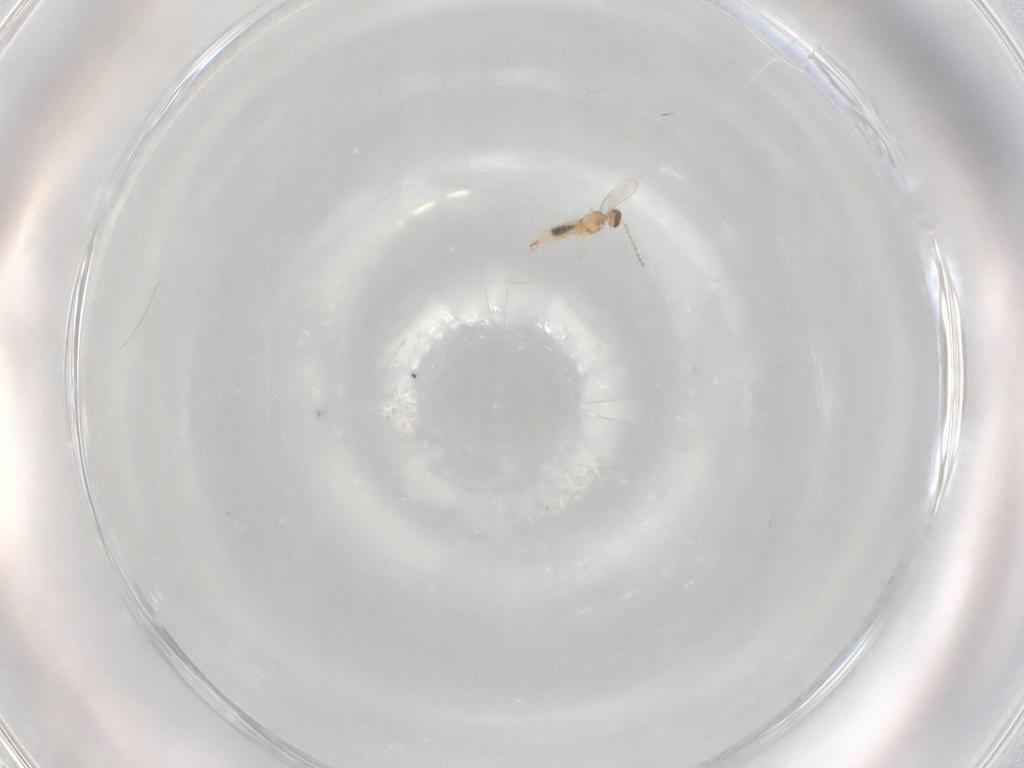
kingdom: Animalia
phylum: Arthropoda
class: Insecta
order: Diptera
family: Cecidomyiidae
